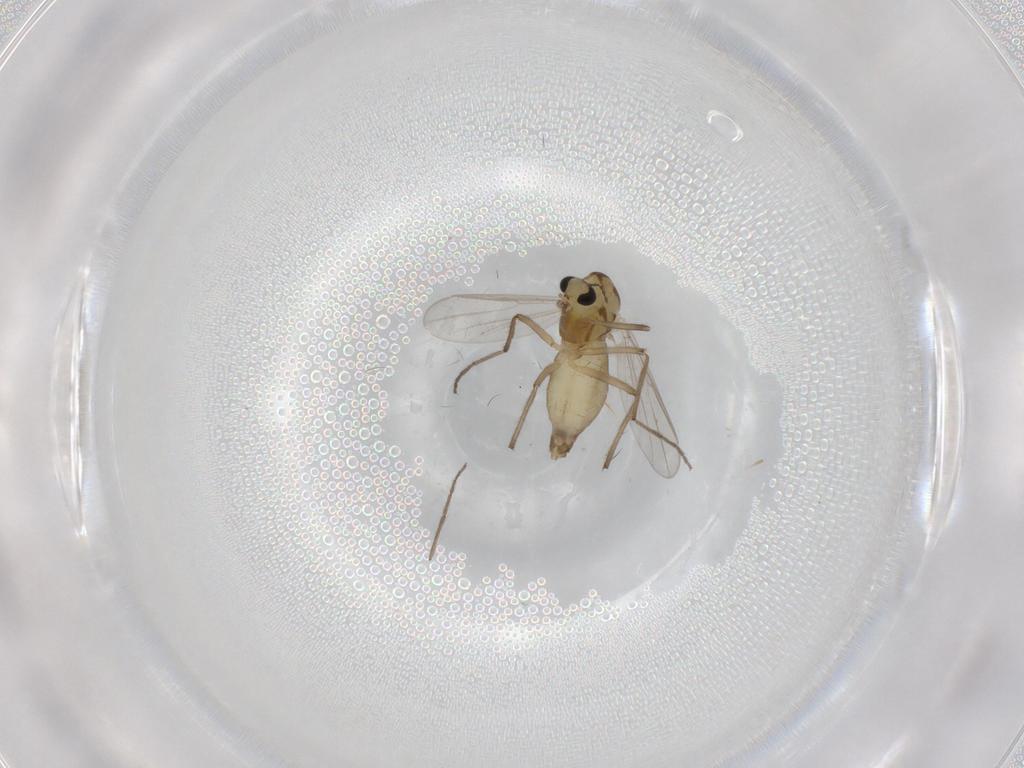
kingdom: Animalia
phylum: Arthropoda
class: Insecta
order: Diptera
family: Chironomidae
